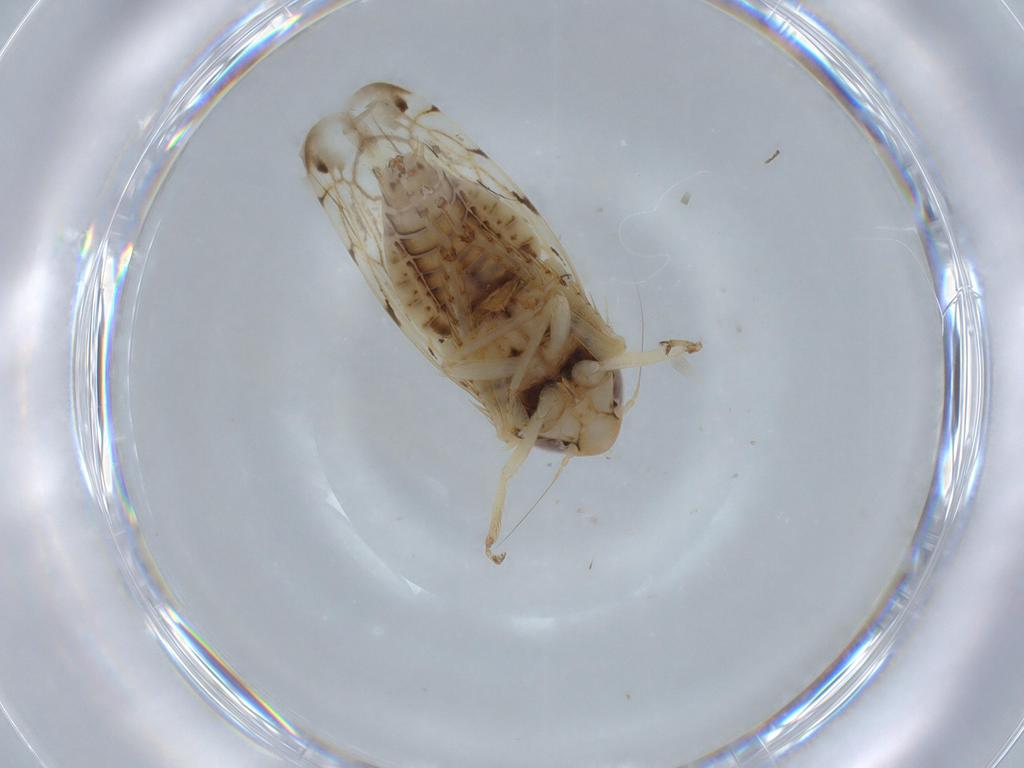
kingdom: Animalia
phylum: Arthropoda
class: Insecta
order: Hemiptera
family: Cicadellidae
